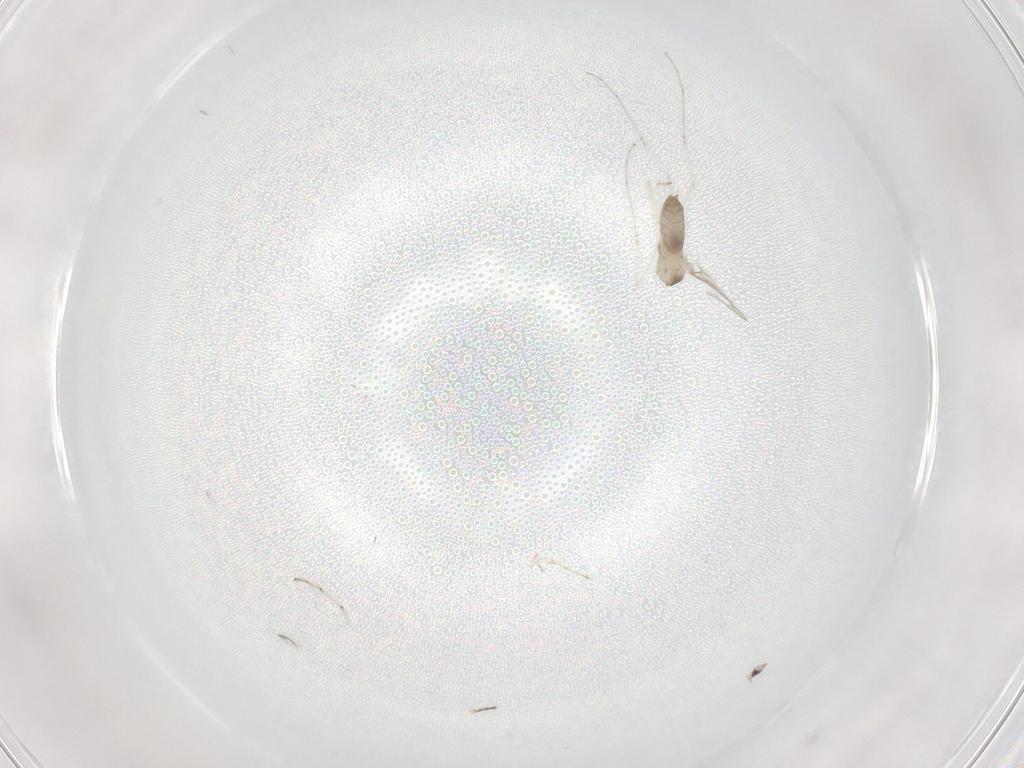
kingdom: Animalia
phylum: Arthropoda
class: Insecta
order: Diptera
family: Cecidomyiidae
